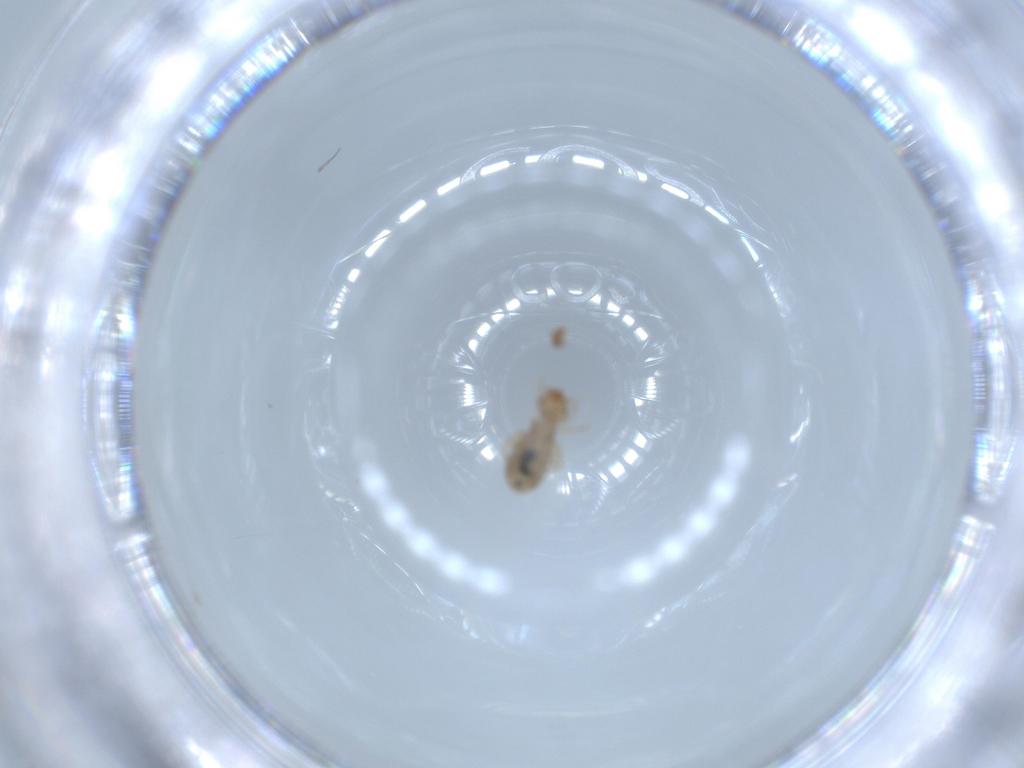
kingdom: Animalia
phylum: Arthropoda
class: Insecta
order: Psocodea
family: Liposcelididae
